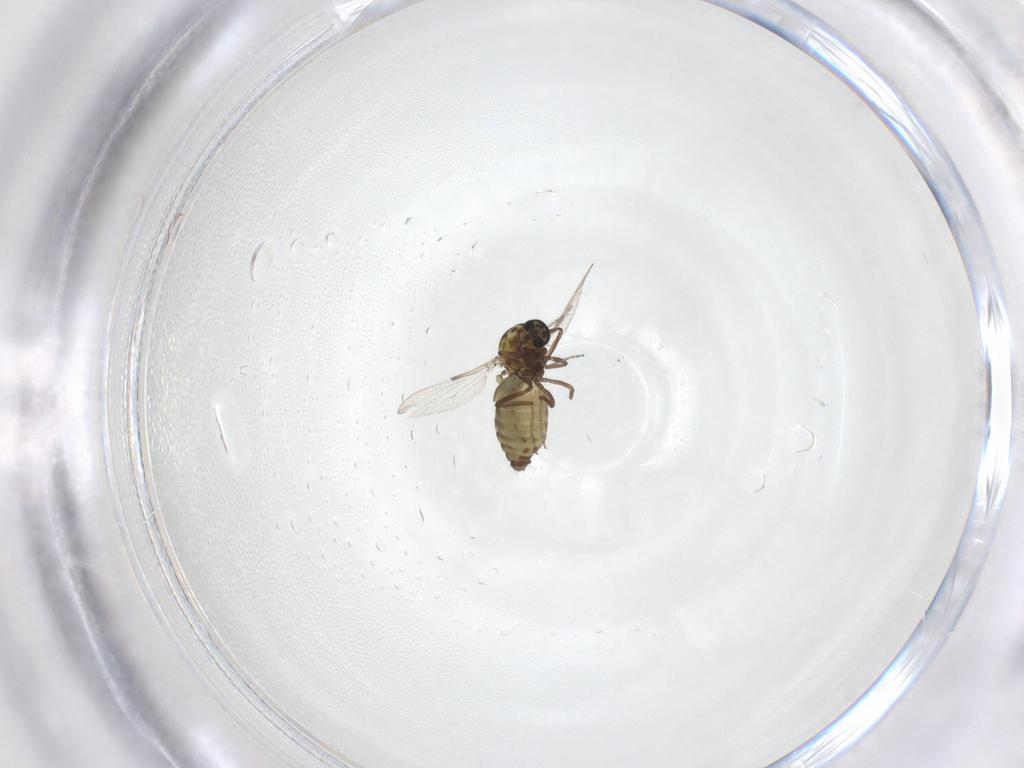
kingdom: Animalia
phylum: Arthropoda
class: Insecta
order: Diptera
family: Ceratopogonidae
